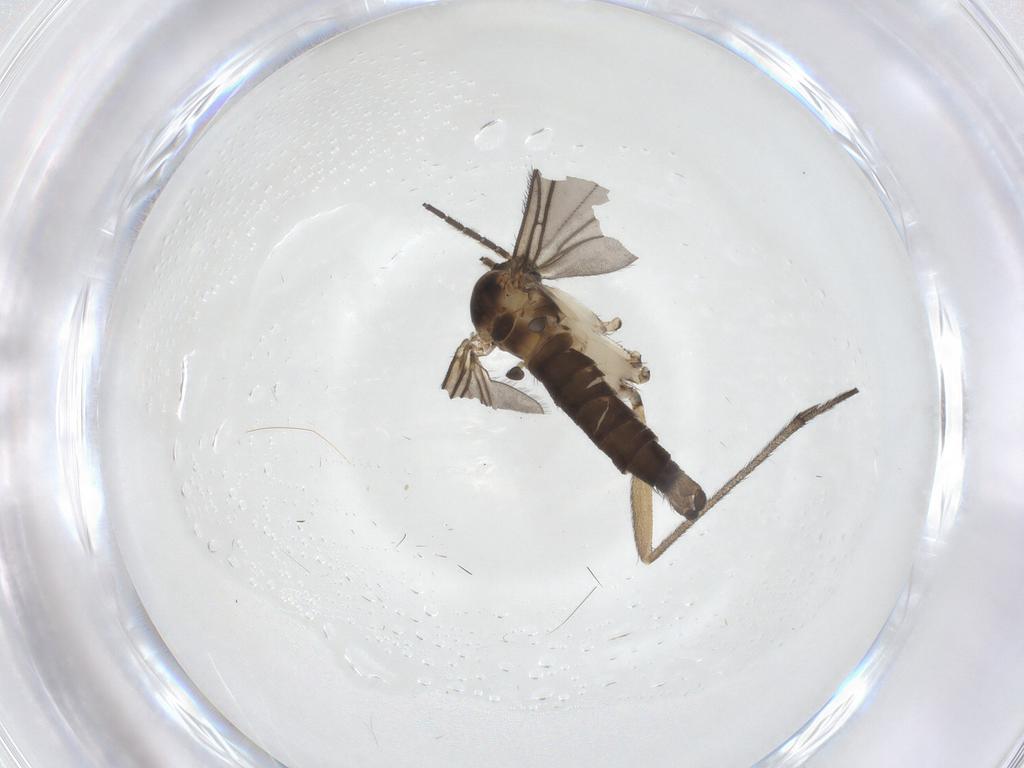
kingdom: Animalia
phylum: Arthropoda
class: Insecta
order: Diptera
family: Sciaridae
